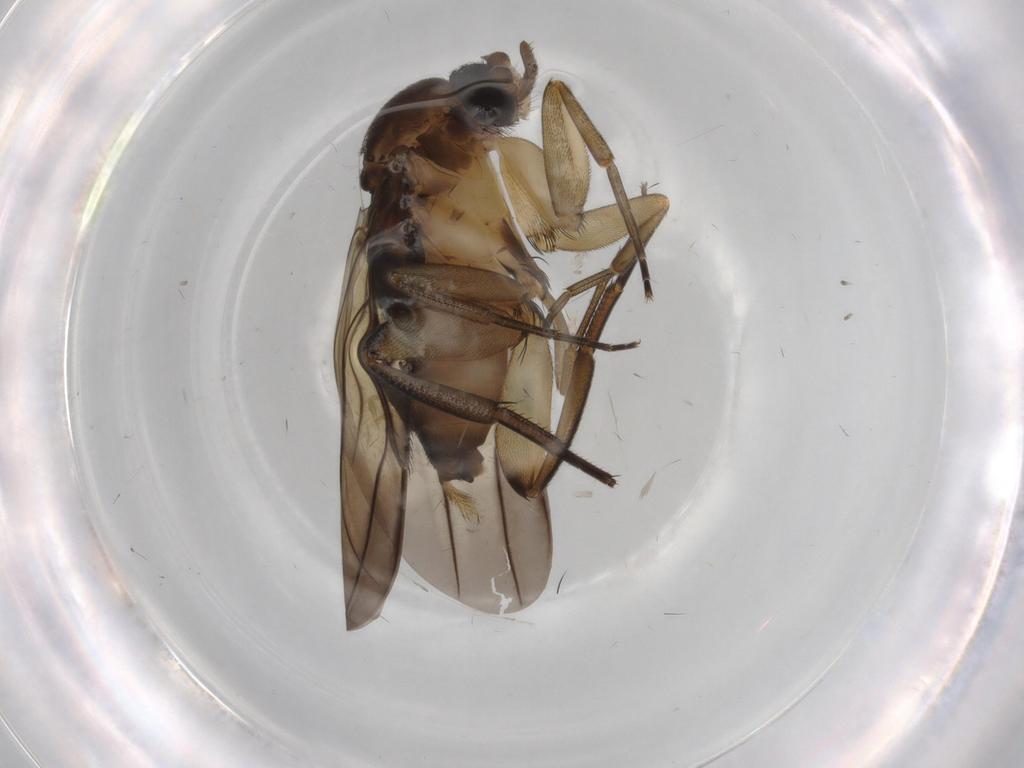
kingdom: Animalia
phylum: Arthropoda
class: Insecta
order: Diptera
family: Phoridae
